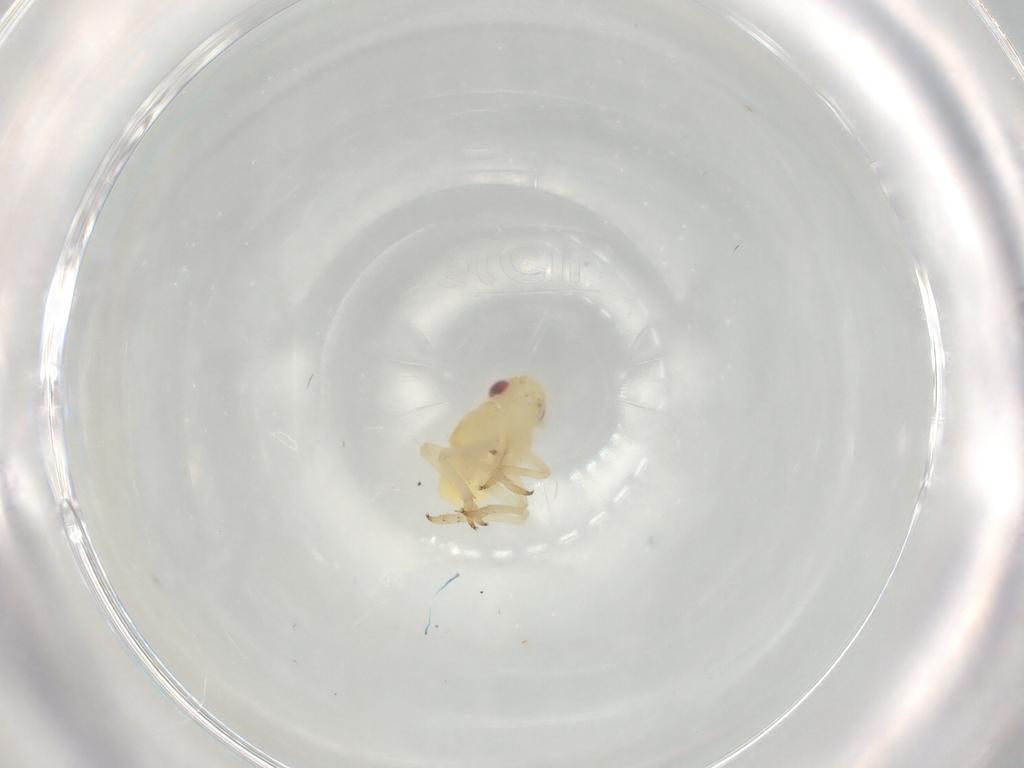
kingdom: Animalia
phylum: Arthropoda
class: Insecta
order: Hemiptera
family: Caliscelidae
